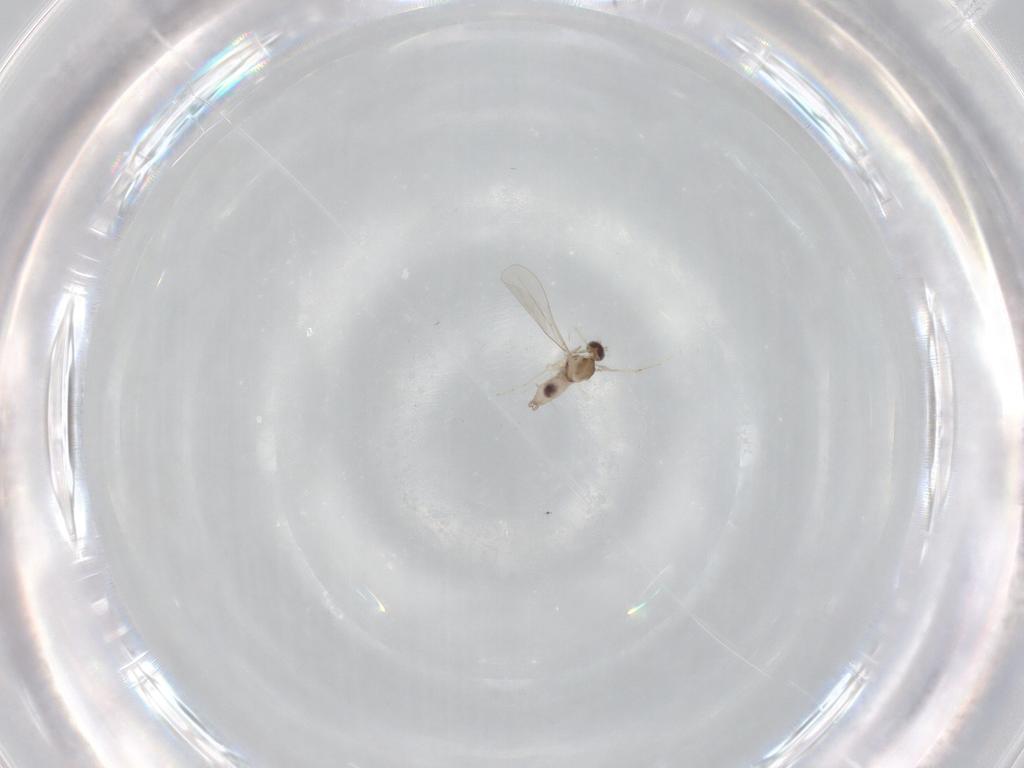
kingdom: Animalia
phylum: Arthropoda
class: Insecta
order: Diptera
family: Cecidomyiidae
